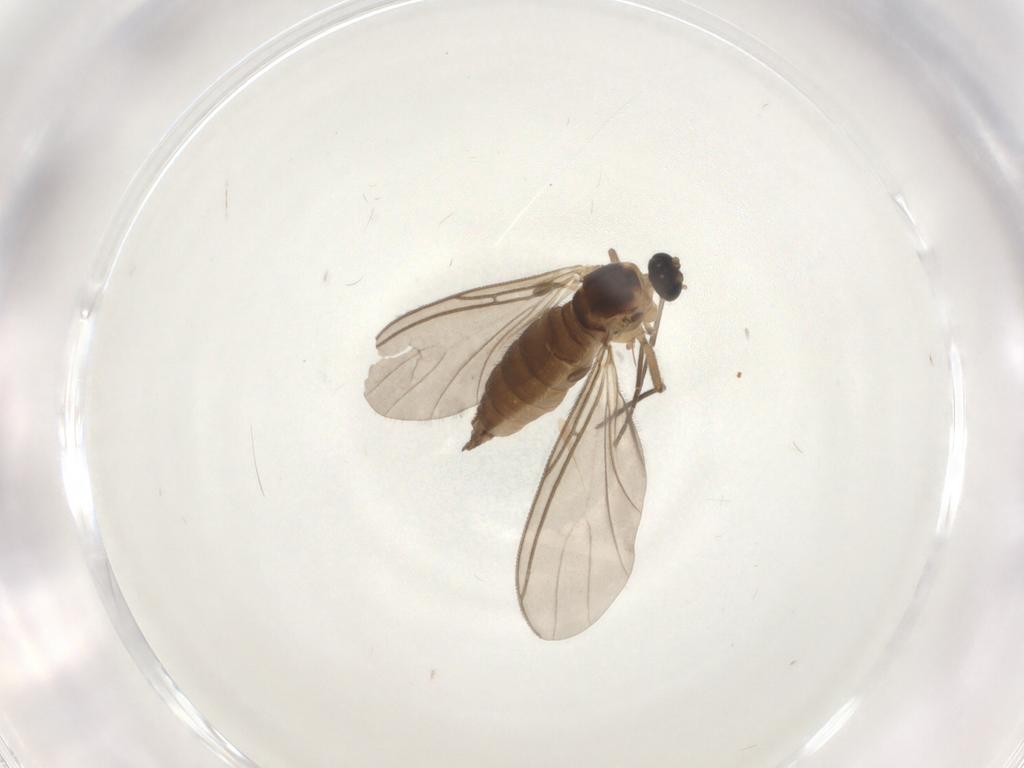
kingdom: Animalia
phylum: Arthropoda
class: Insecta
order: Diptera
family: Sciaridae
